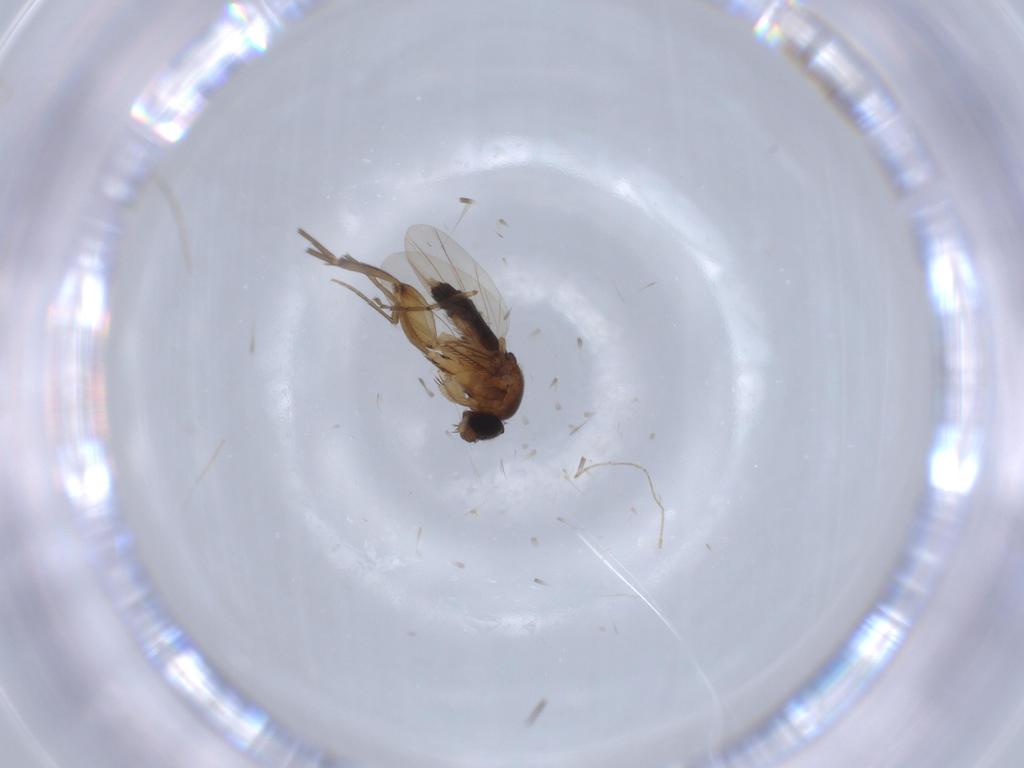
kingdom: Animalia
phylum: Arthropoda
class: Insecta
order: Diptera
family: Phoridae
